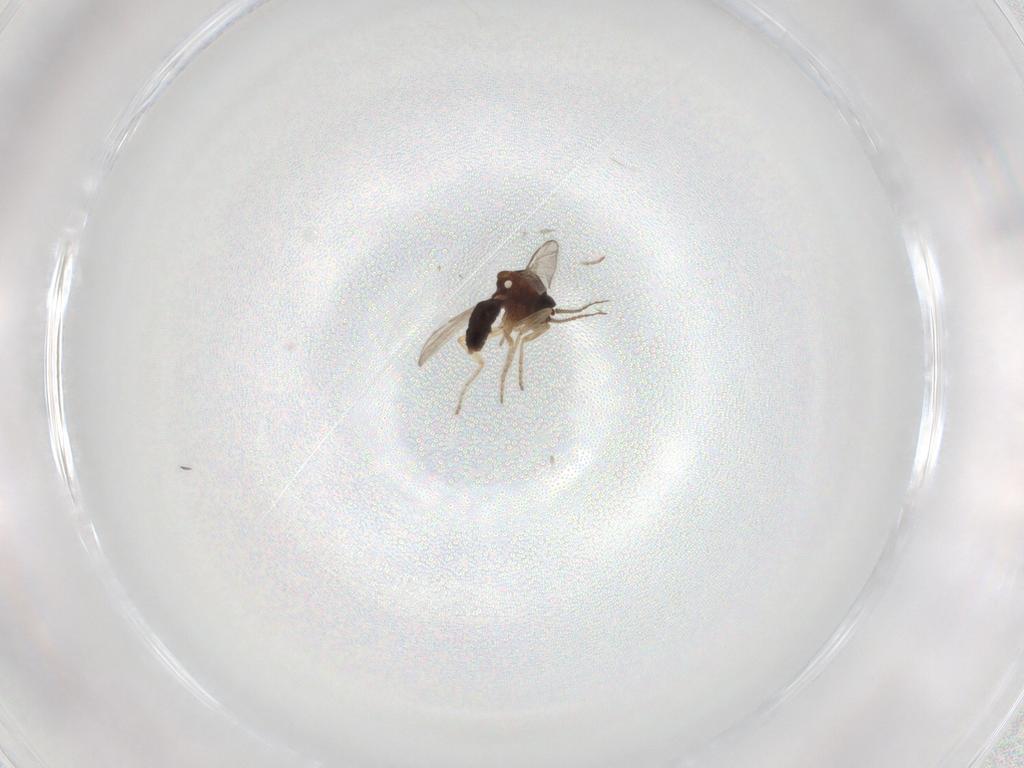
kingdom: Animalia
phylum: Arthropoda
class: Insecta
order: Diptera
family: Ceratopogonidae
